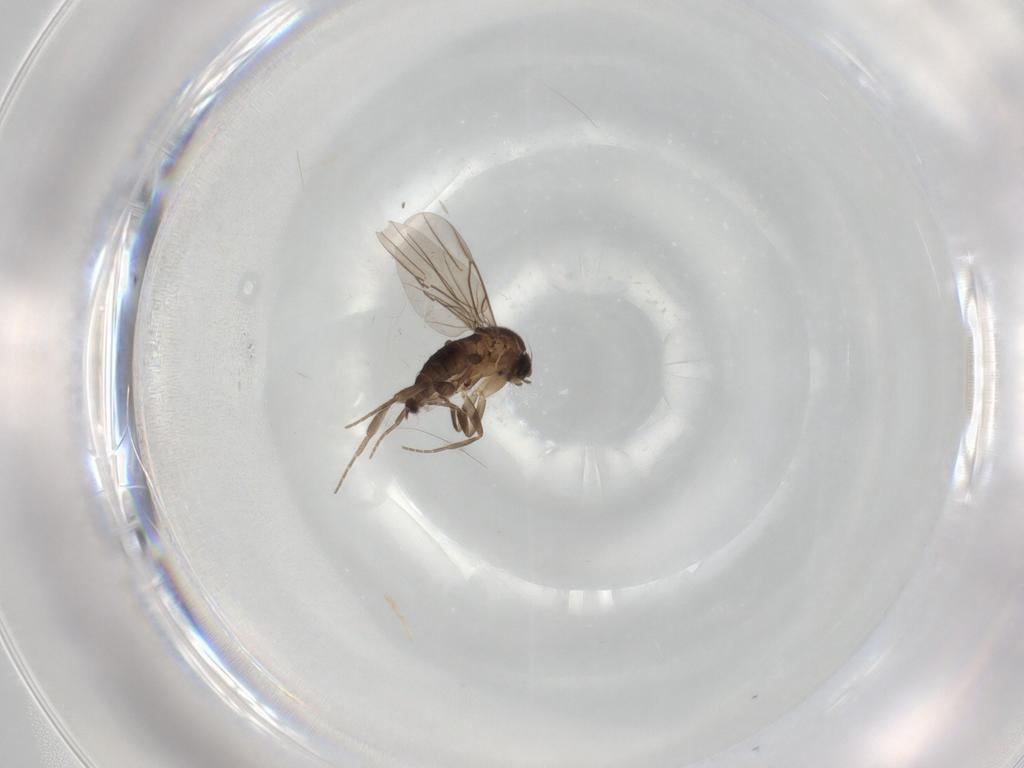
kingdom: Animalia
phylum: Arthropoda
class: Insecta
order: Diptera
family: Phoridae
